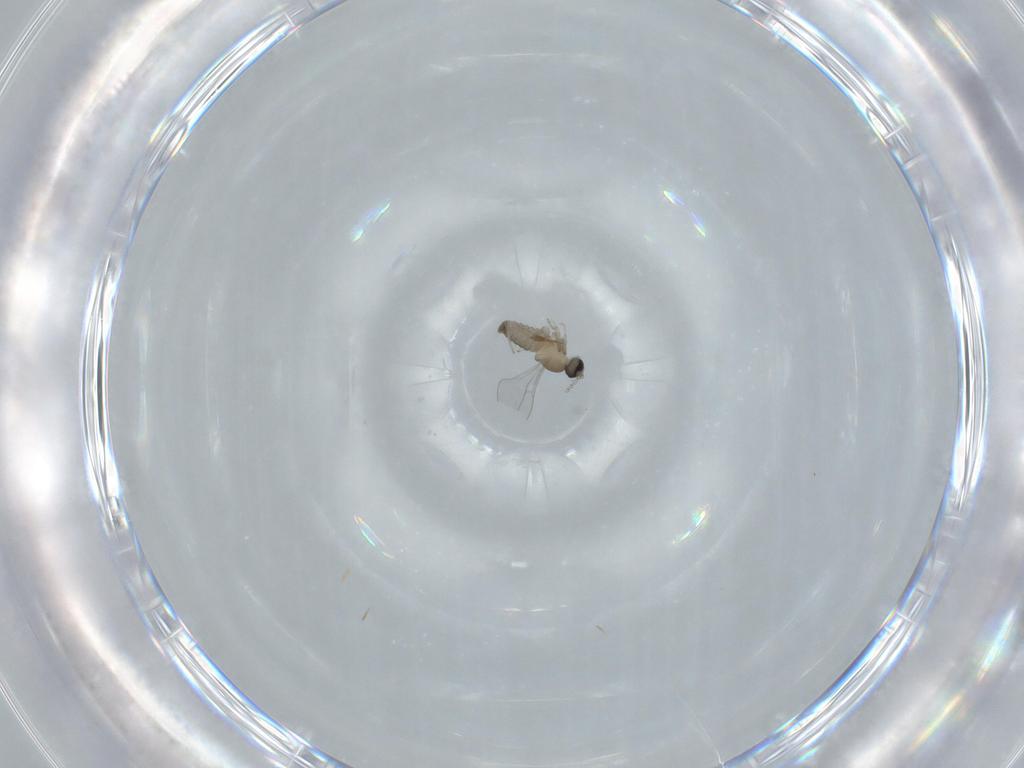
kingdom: Animalia
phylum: Arthropoda
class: Insecta
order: Diptera
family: Cecidomyiidae
